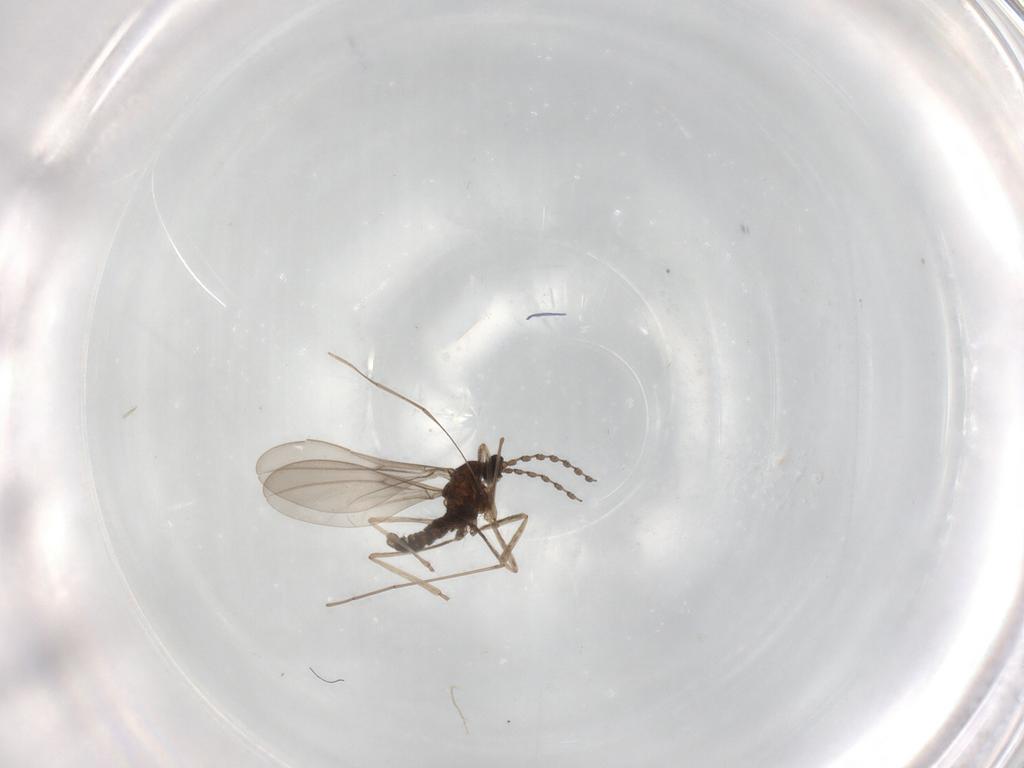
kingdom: Animalia
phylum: Arthropoda
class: Insecta
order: Diptera
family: Cecidomyiidae
